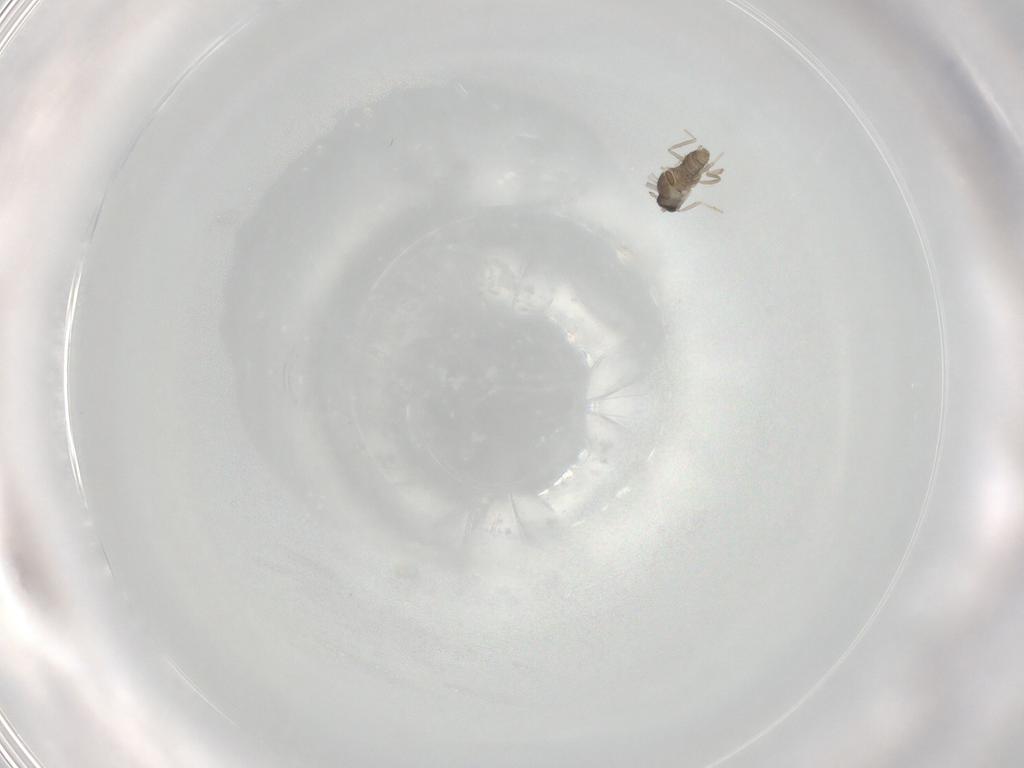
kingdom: Animalia
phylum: Arthropoda
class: Insecta
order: Diptera
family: Cecidomyiidae
